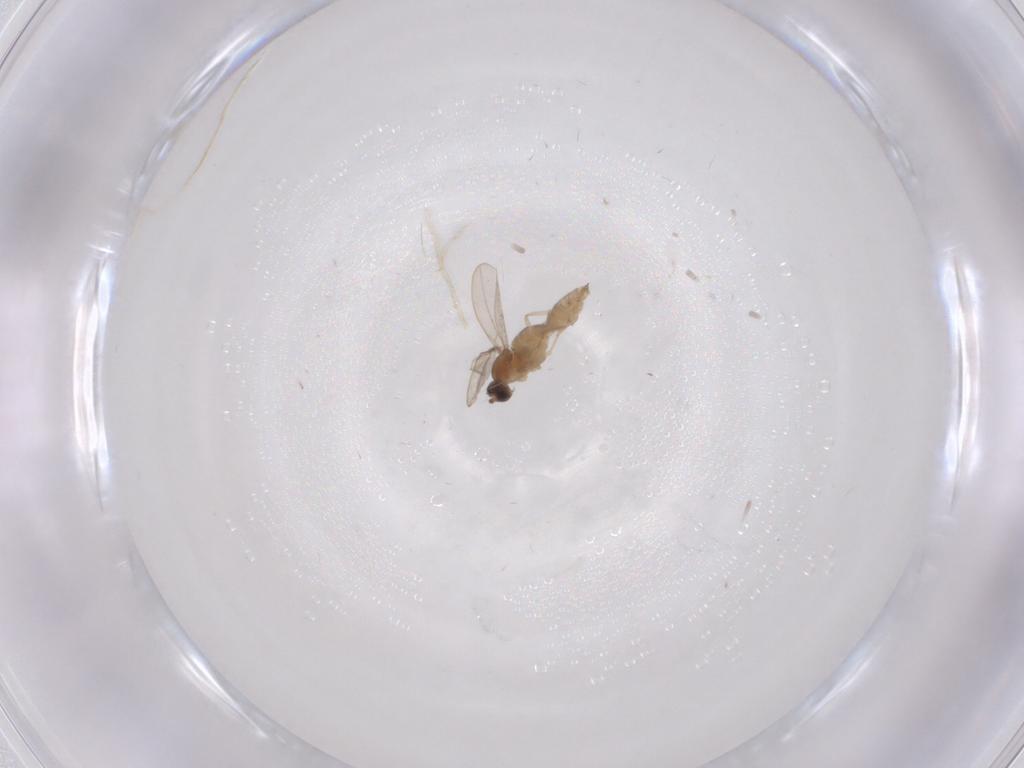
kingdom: Animalia
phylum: Arthropoda
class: Insecta
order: Diptera
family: Cecidomyiidae
